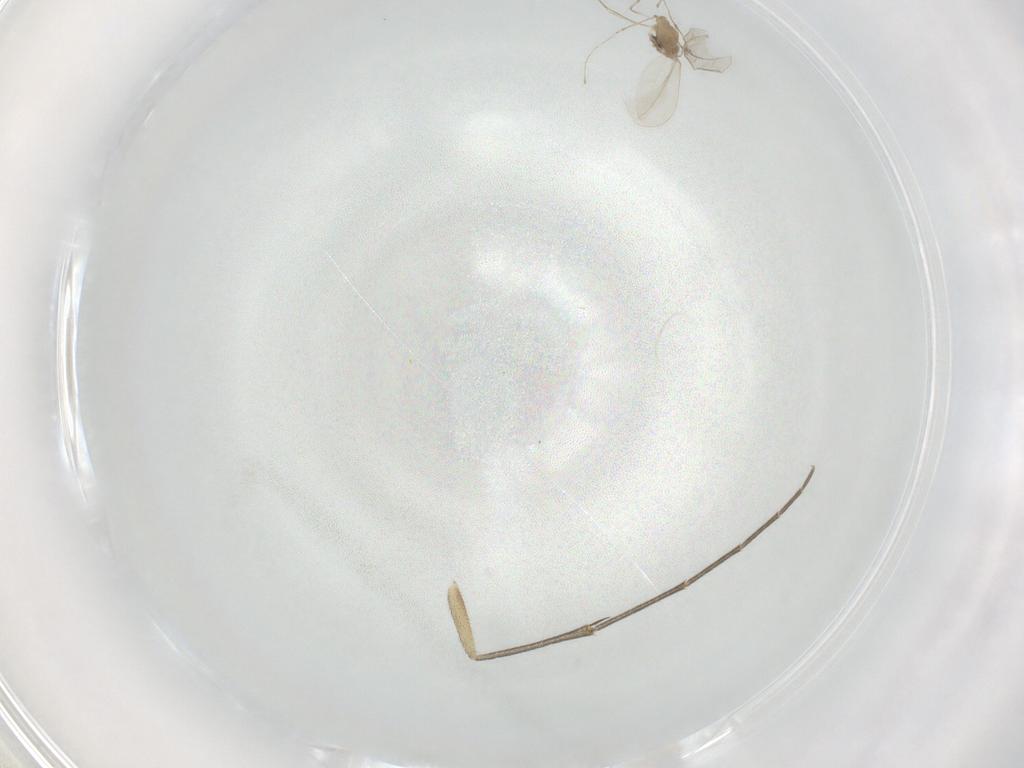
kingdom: Animalia
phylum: Arthropoda
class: Insecta
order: Diptera
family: Mycetophilidae
